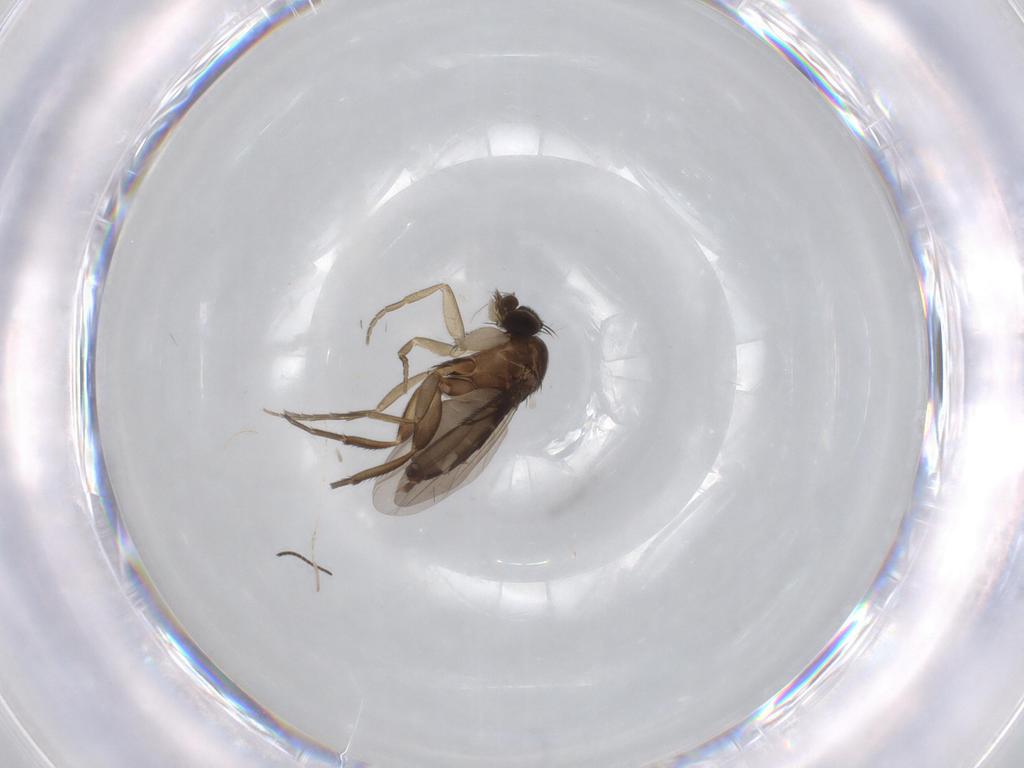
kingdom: Animalia
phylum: Arthropoda
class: Insecta
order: Diptera
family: Phoridae
